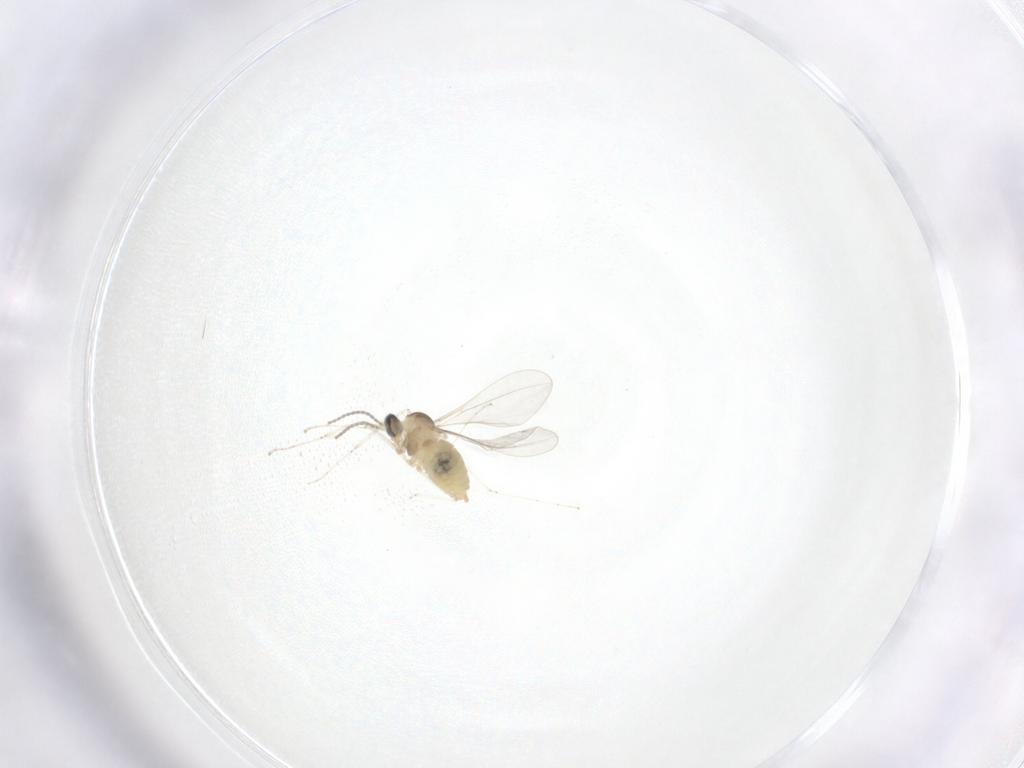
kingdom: Animalia
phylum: Arthropoda
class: Insecta
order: Diptera
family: Cecidomyiidae
